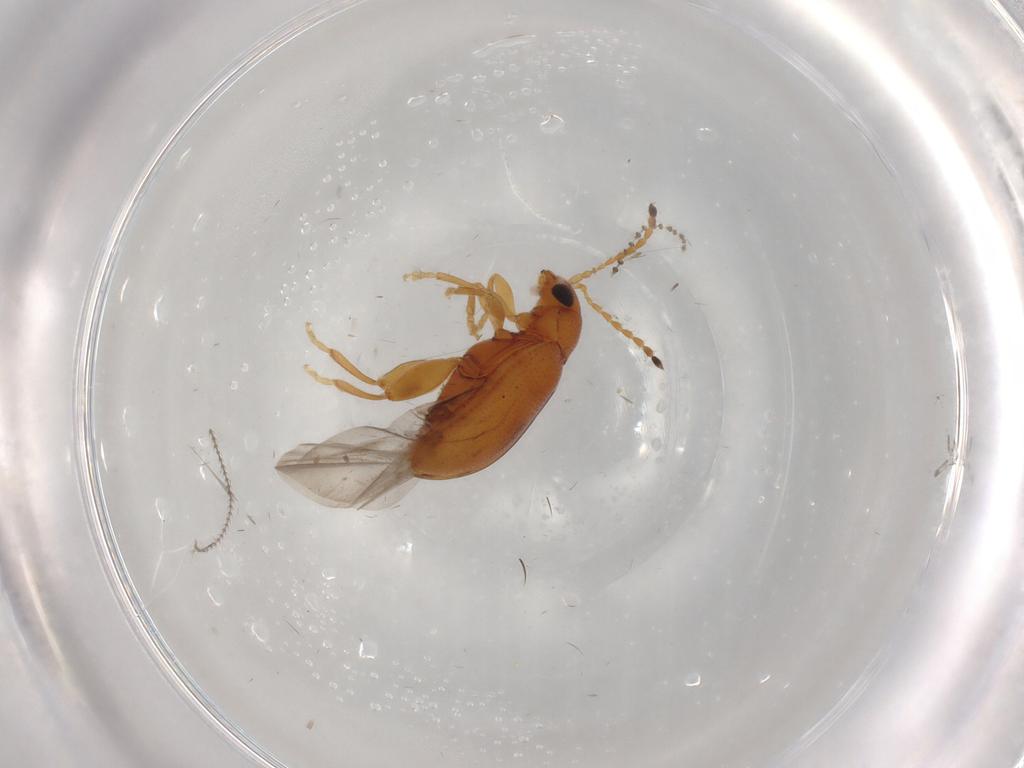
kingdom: Animalia
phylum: Arthropoda
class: Insecta
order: Coleoptera
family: Chrysomelidae
